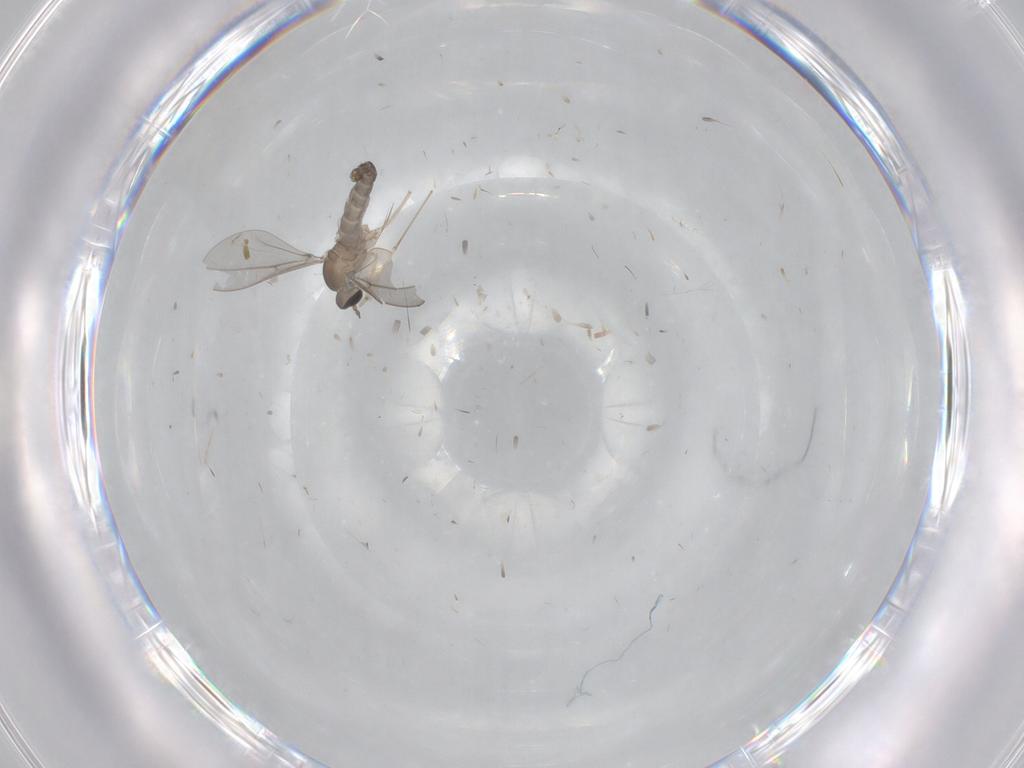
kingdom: Animalia
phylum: Arthropoda
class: Insecta
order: Diptera
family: Cecidomyiidae
